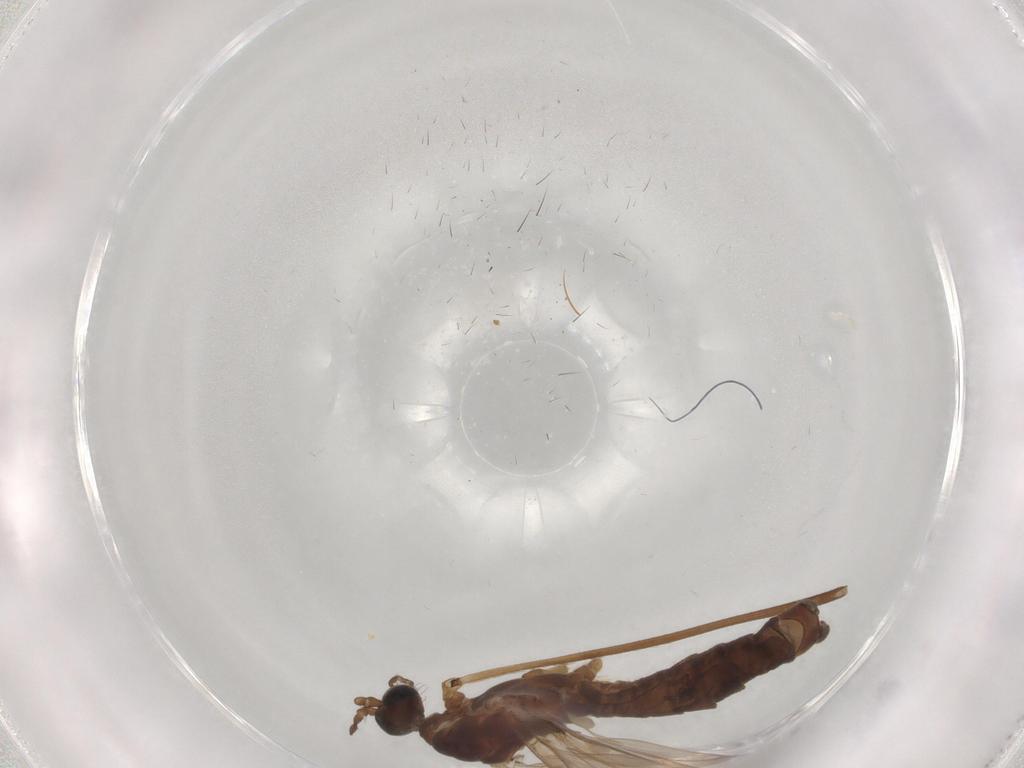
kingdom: Animalia
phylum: Arthropoda
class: Insecta
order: Diptera
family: Limoniidae
